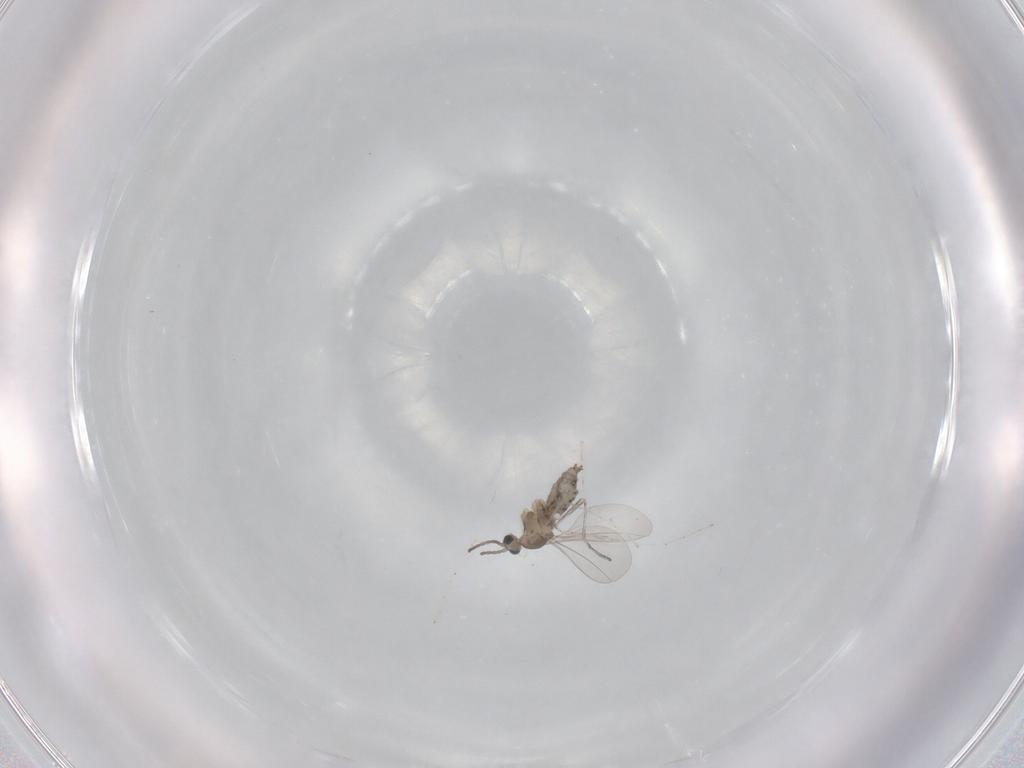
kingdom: Animalia
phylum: Arthropoda
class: Insecta
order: Diptera
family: Cecidomyiidae
